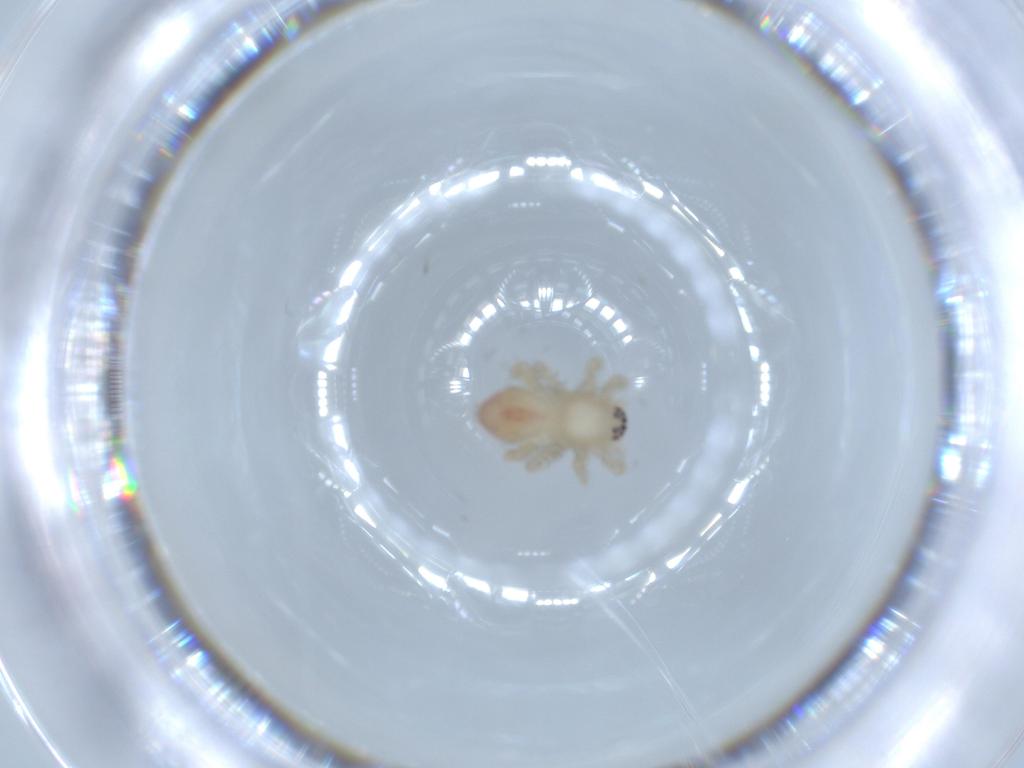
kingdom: Animalia
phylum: Arthropoda
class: Arachnida
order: Araneae
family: Clubionidae
